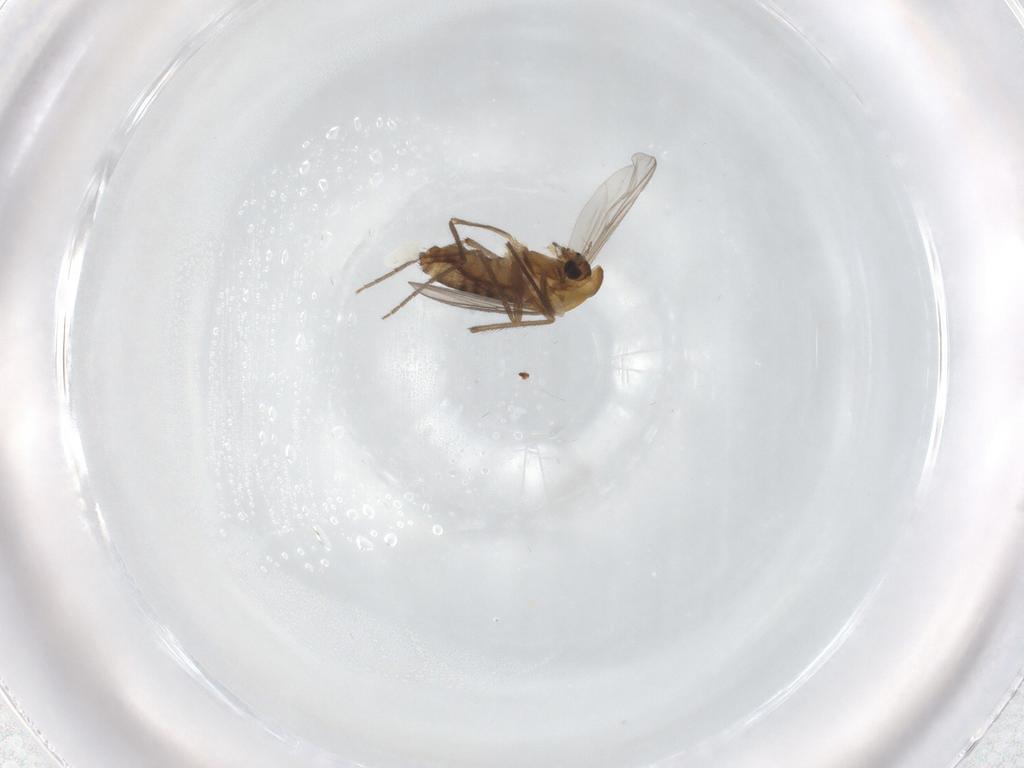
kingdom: Animalia
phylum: Arthropoda
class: Insecta
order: Diptera
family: Chironomidae
